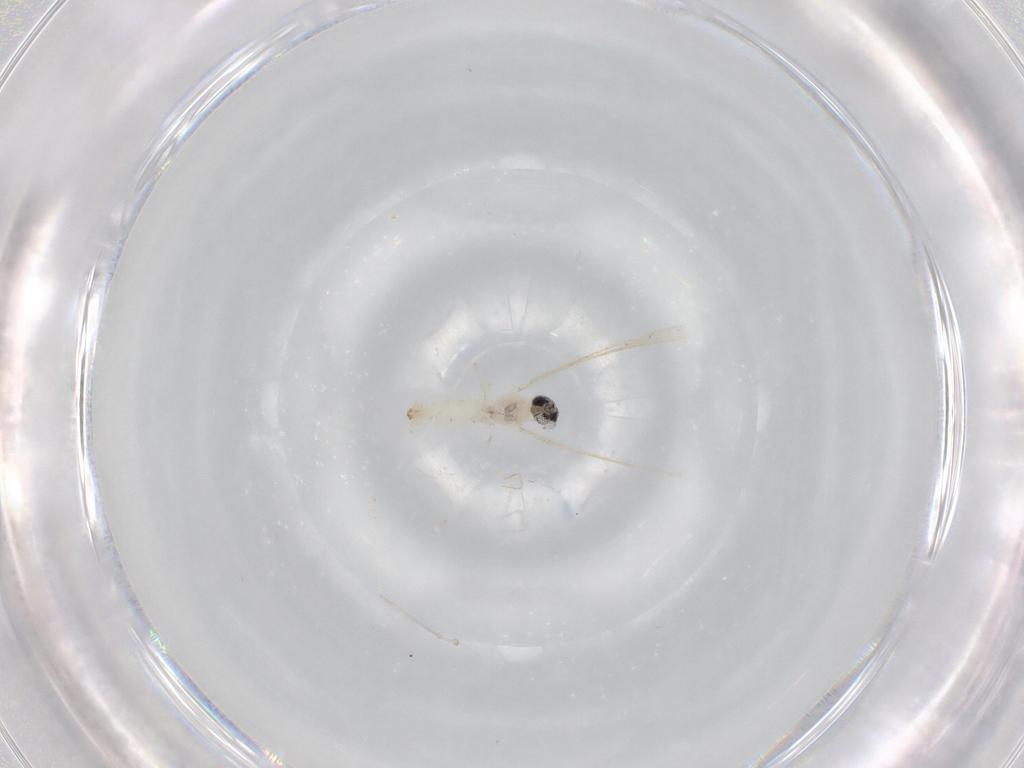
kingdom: Animalia
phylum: Arthropoda
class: Insecta
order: Diptera
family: Cecidomyiidae
